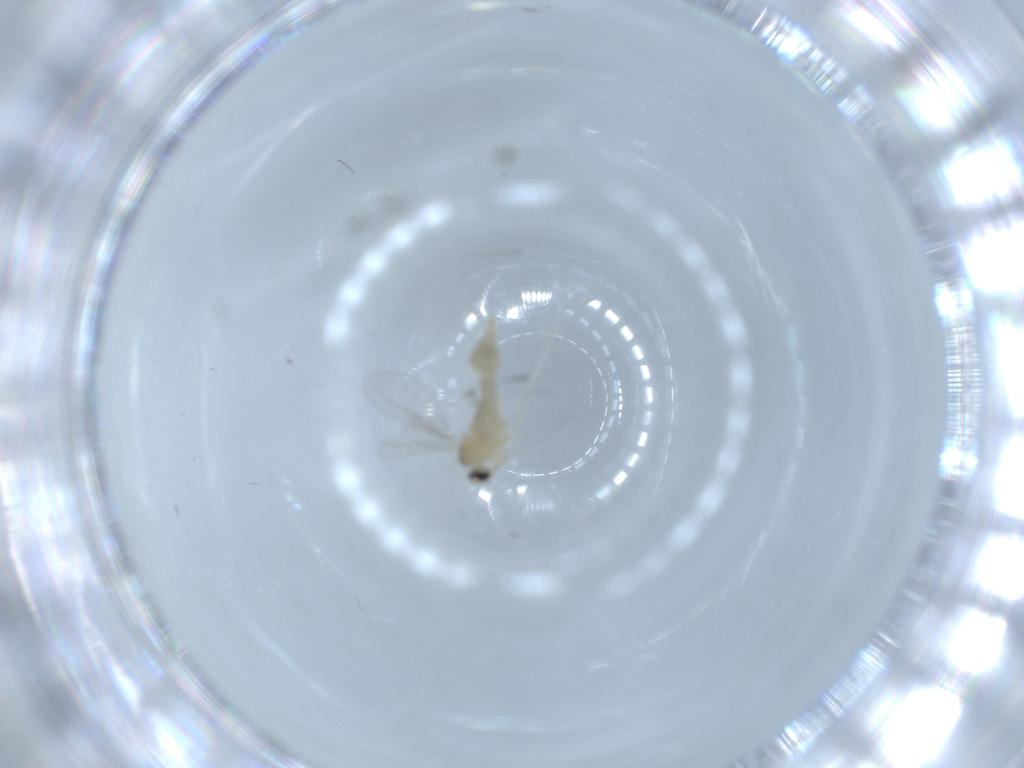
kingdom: Animalia
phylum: Arthropoda
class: Insecta
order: Diptera
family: Cecidomyiidae
